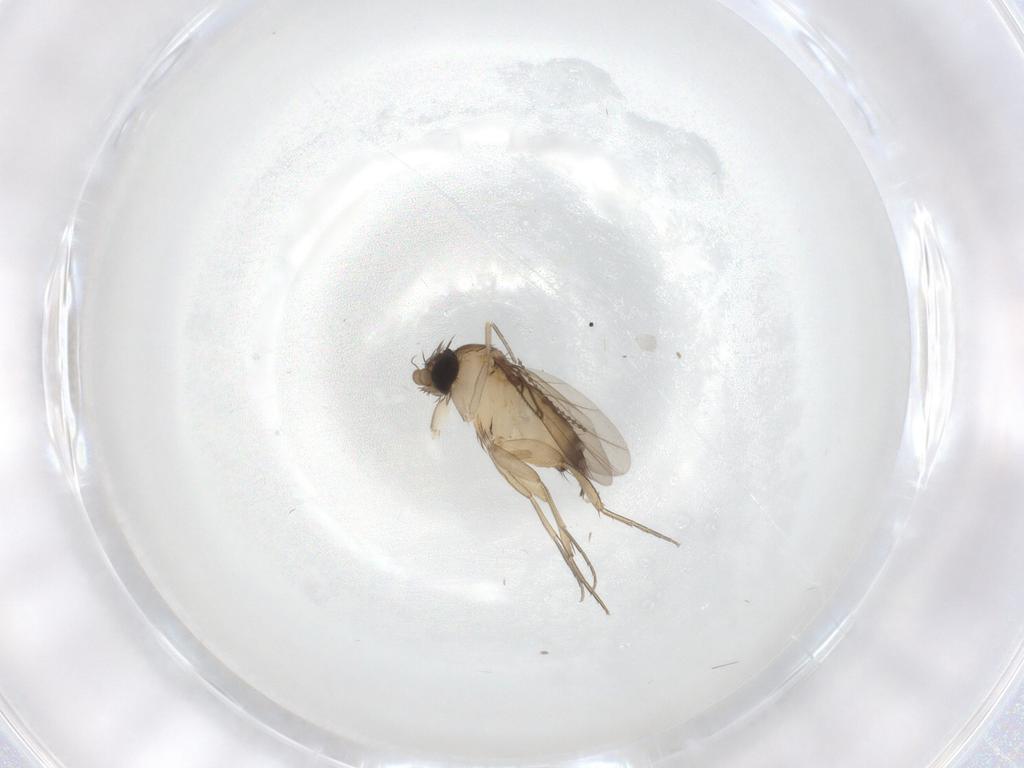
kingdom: Animalia
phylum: Arthropoda
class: Insecta
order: Diptera
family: Phoridae
